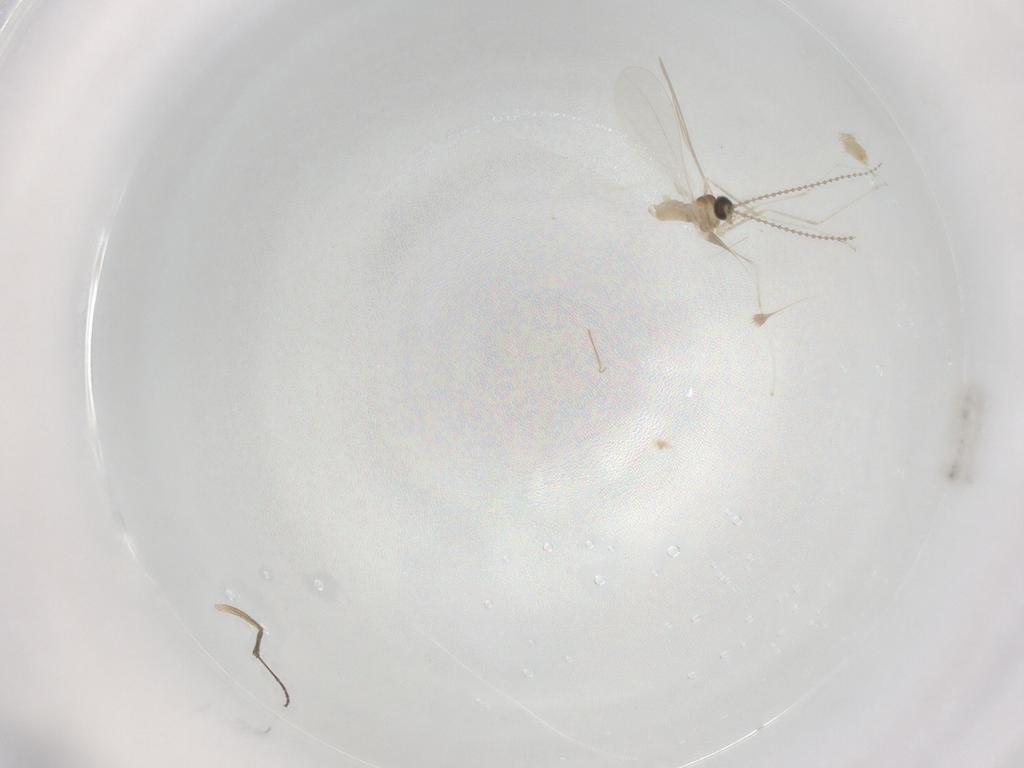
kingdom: Animalia
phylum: Arthropoda
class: Insecta
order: Diptera
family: Cecidomyiidae
